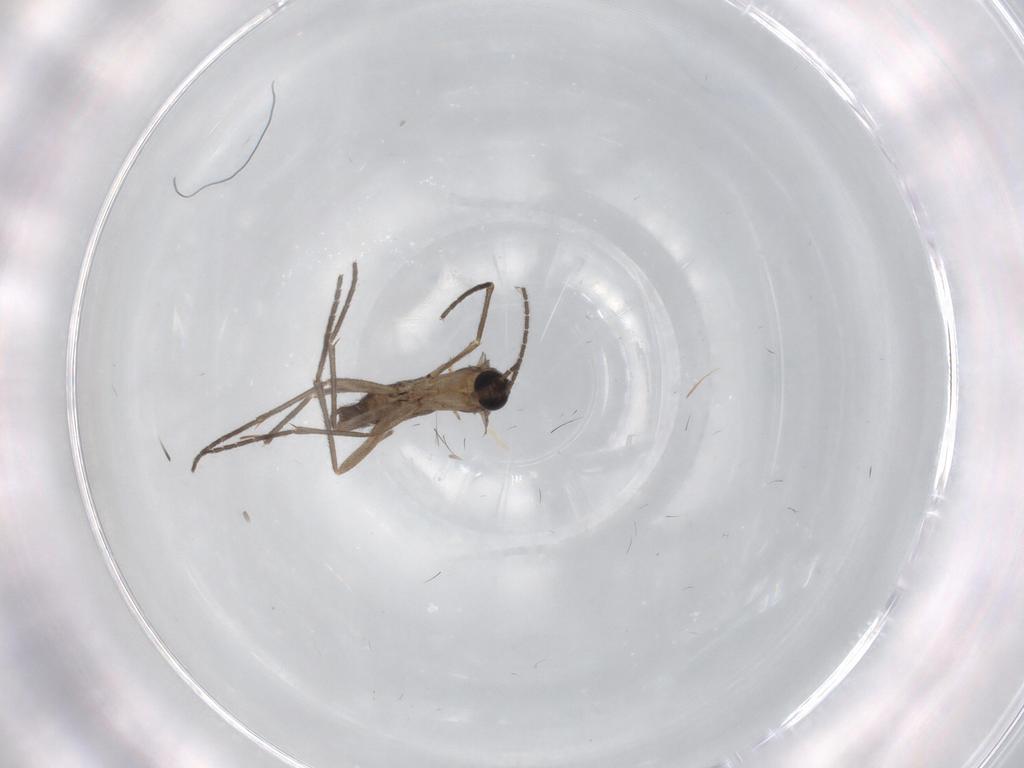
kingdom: Animalia
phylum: Arthropoda
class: Insecta
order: Diptera
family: Sciaridae
